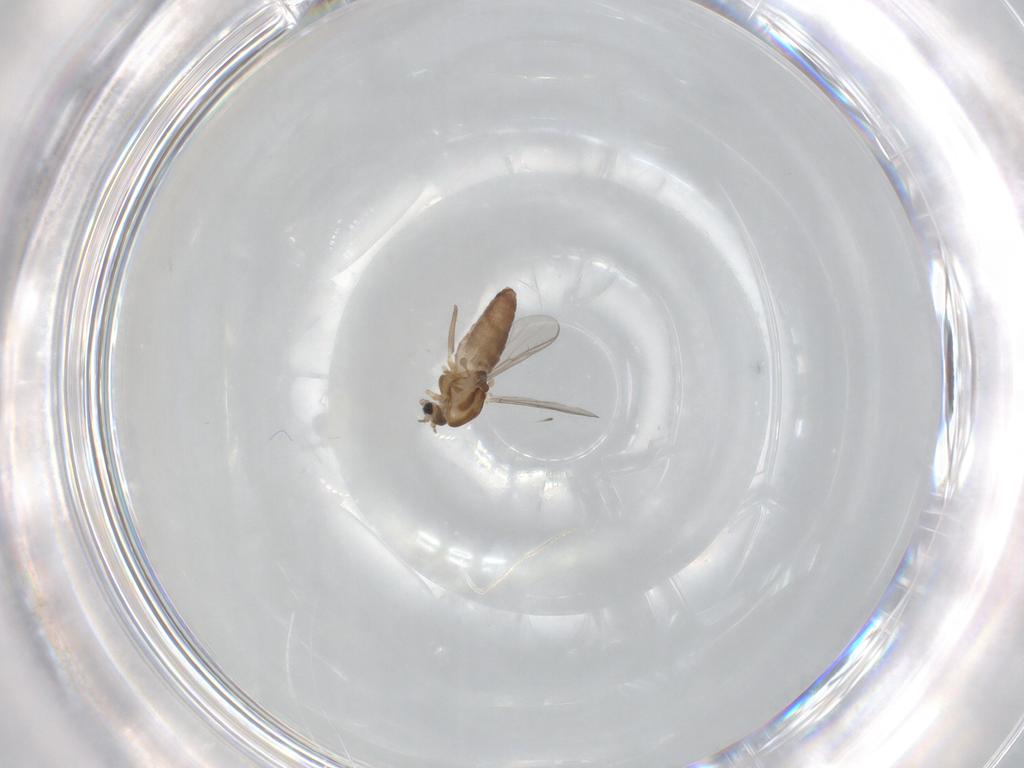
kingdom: Animalia
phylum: Arthropoda
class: Insecta
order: Diptera
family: Chironomidae
